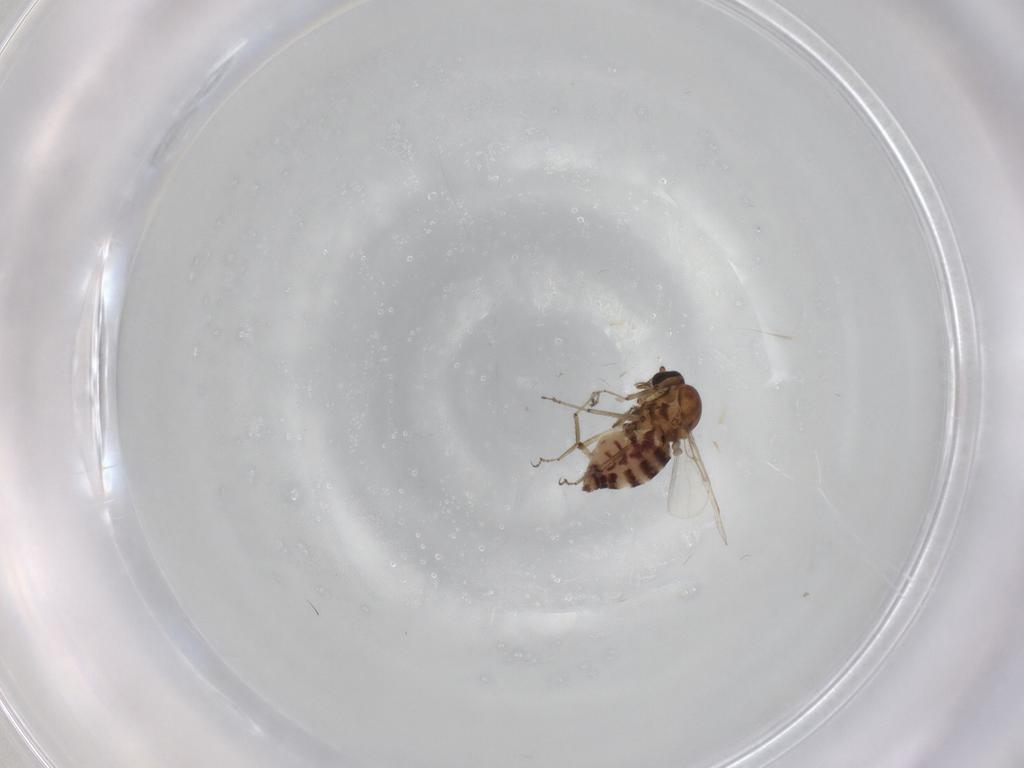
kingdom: Animalia
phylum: Arthropoda
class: Insecta
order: Diptera
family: Ceratopogonidae
